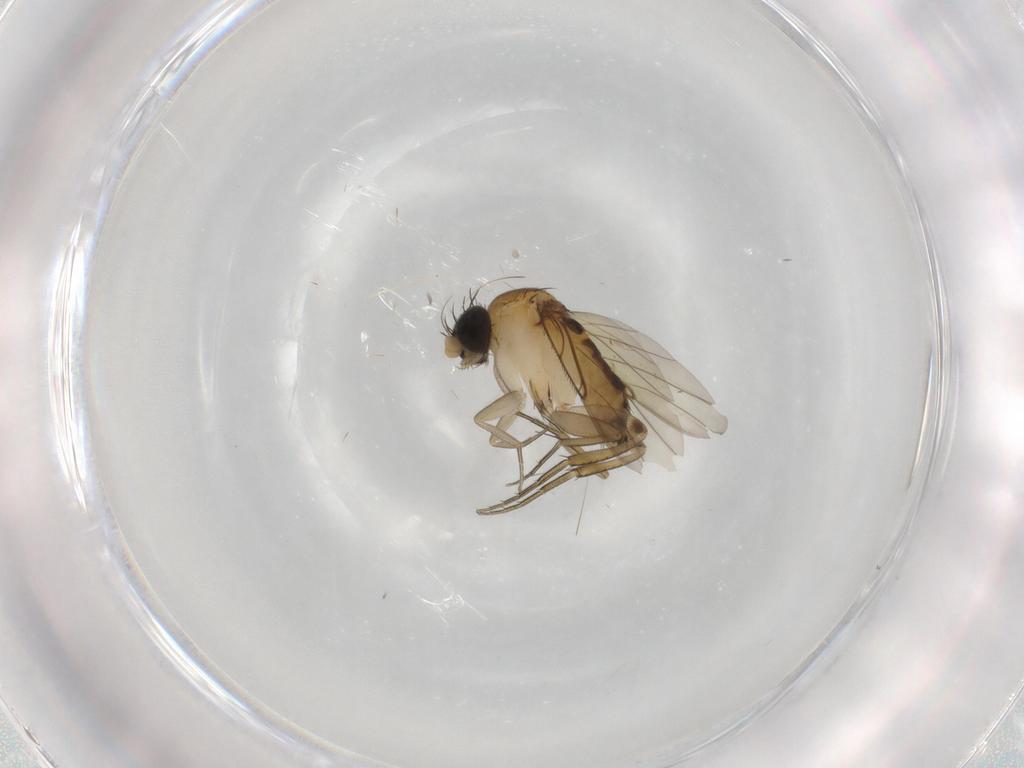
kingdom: Animalia
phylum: Arthropoda
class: Insecta
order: Diptera
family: Phoridae
